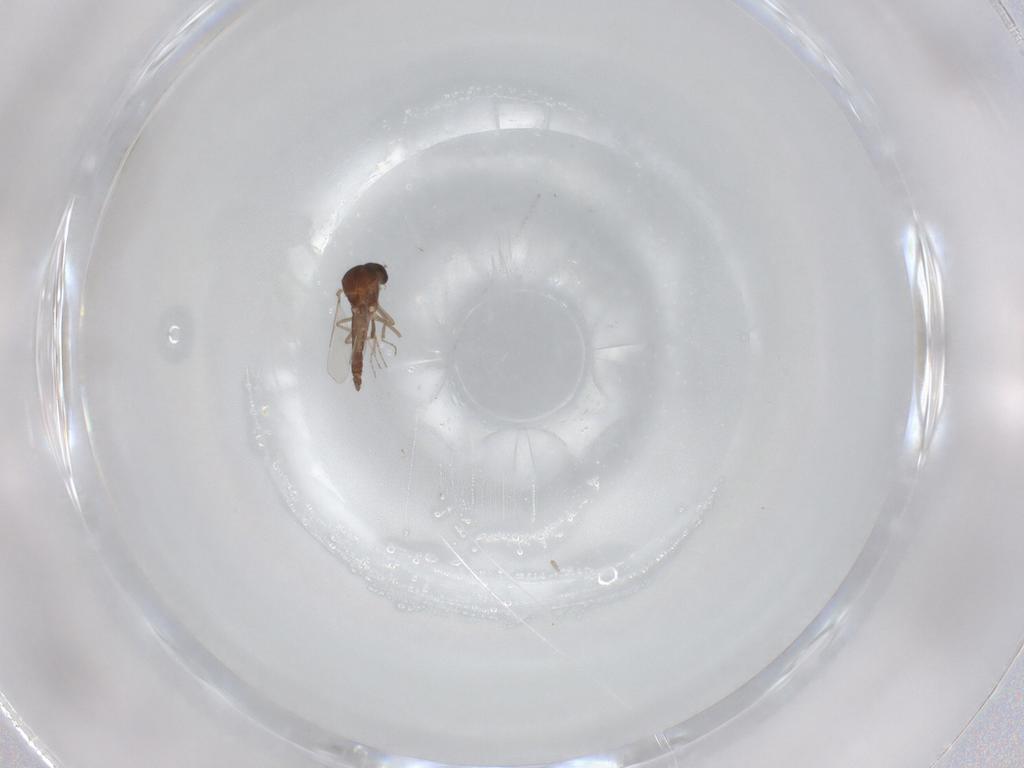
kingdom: Animalia
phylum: Arthropoda
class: Insecta
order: Diptera
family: Ceratopogonidae
